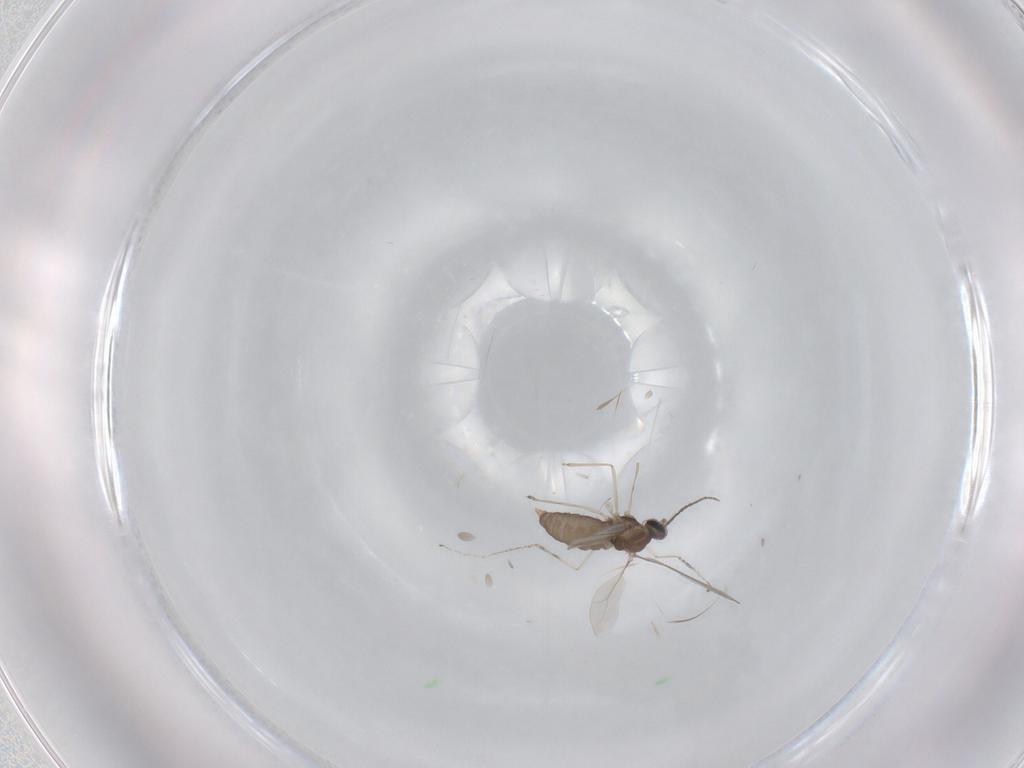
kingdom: Animalia
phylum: Arthropoda
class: Insecta
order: Diptera
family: Cecidomyiidae
